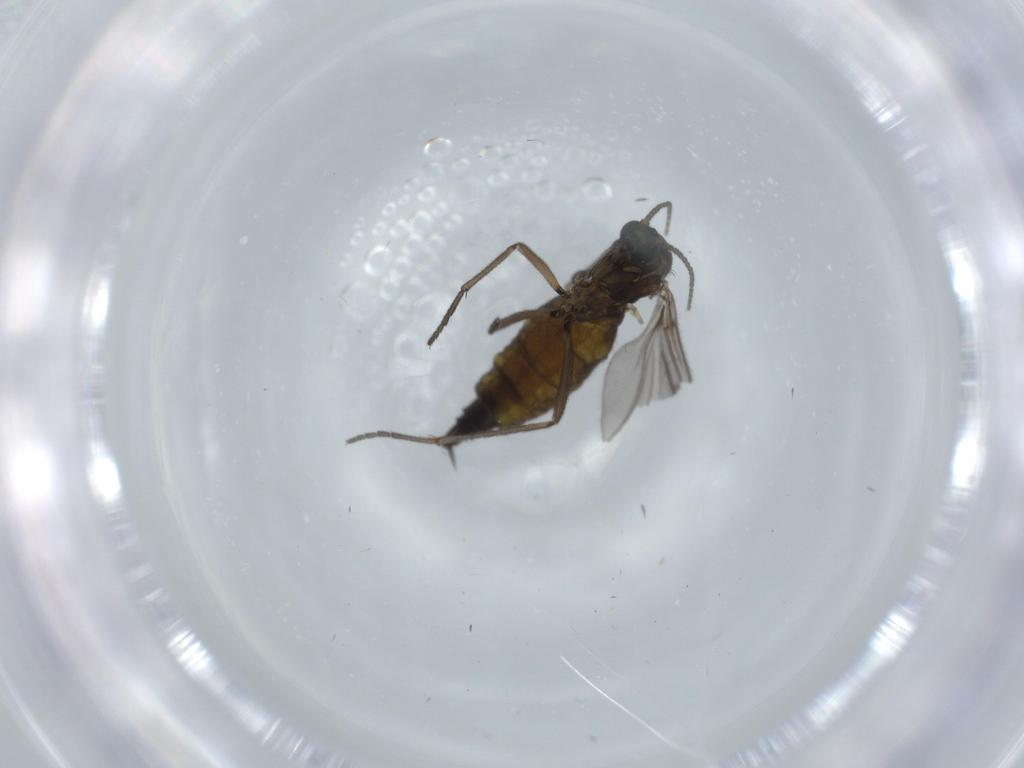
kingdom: Animalia
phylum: Arthropoda
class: Insecta
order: Diptera
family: Sciaridae
